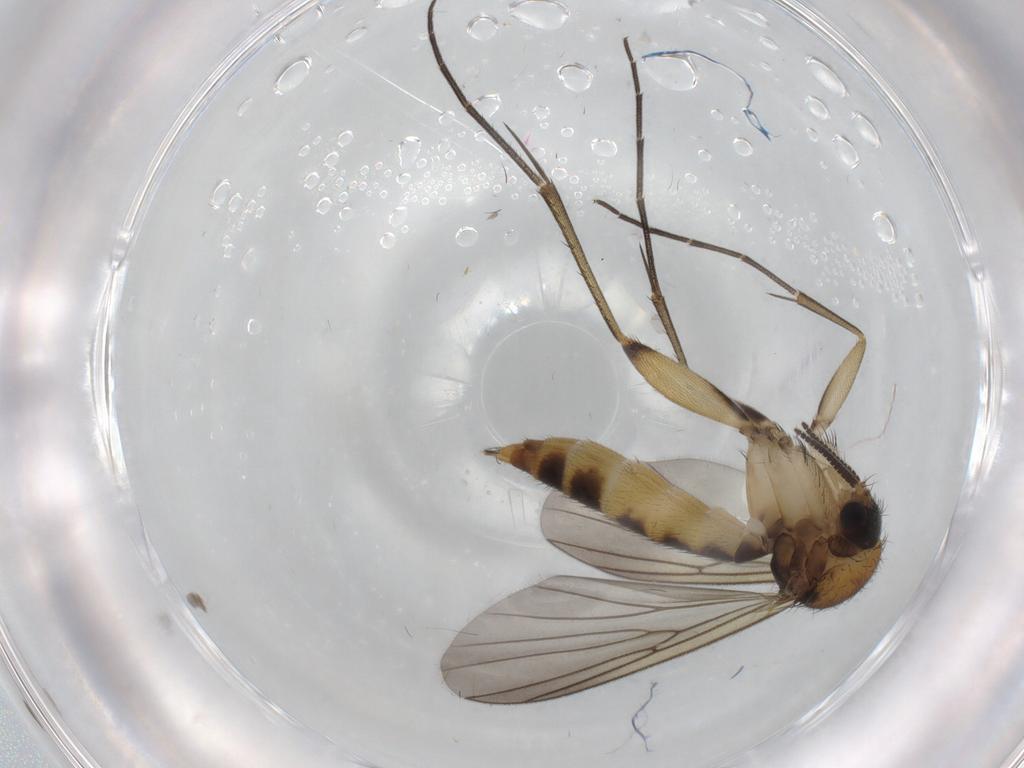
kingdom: Animalia
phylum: Arthropoda
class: Insecta
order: Diptera
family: Mycetophilidae
